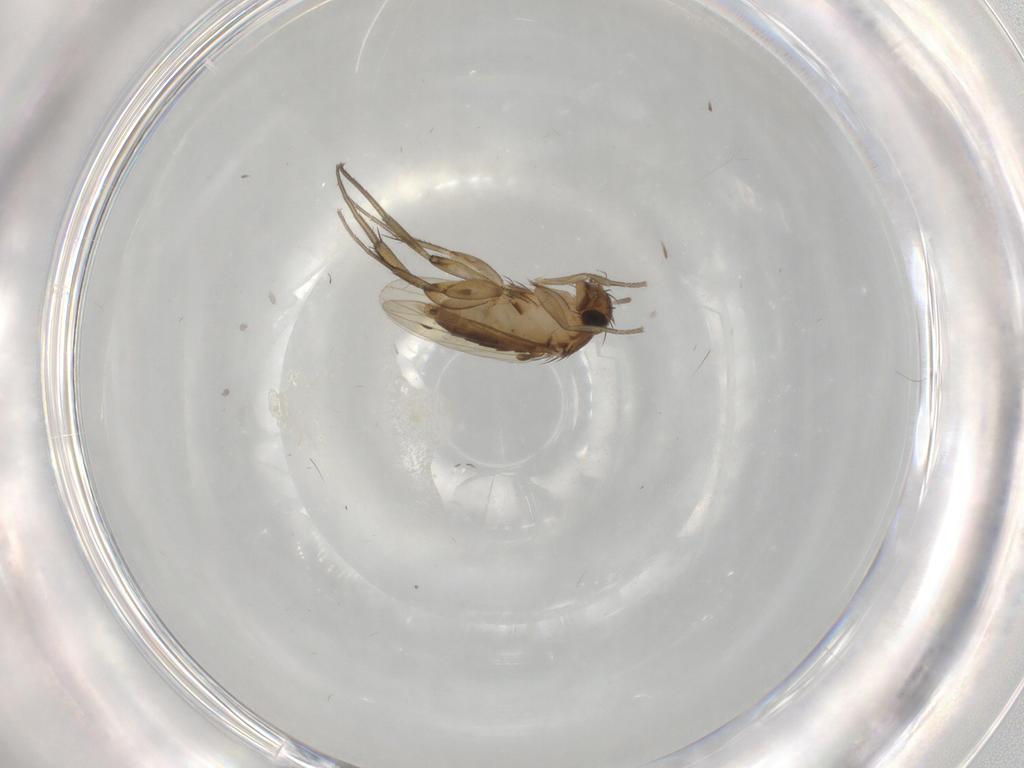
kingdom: Animalia
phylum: Arthropoda
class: Insecta
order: Diptera
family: Phoridae
